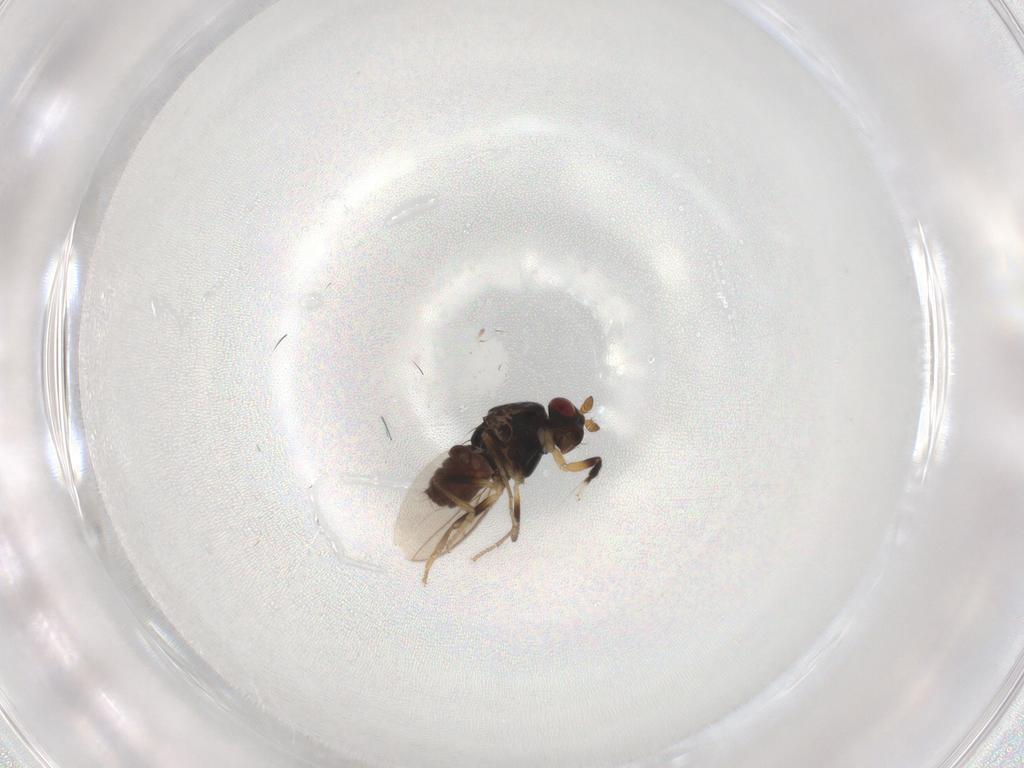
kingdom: Animalia
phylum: Arthropoda
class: Insecta
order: Diptera
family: Sphaeroceridae
